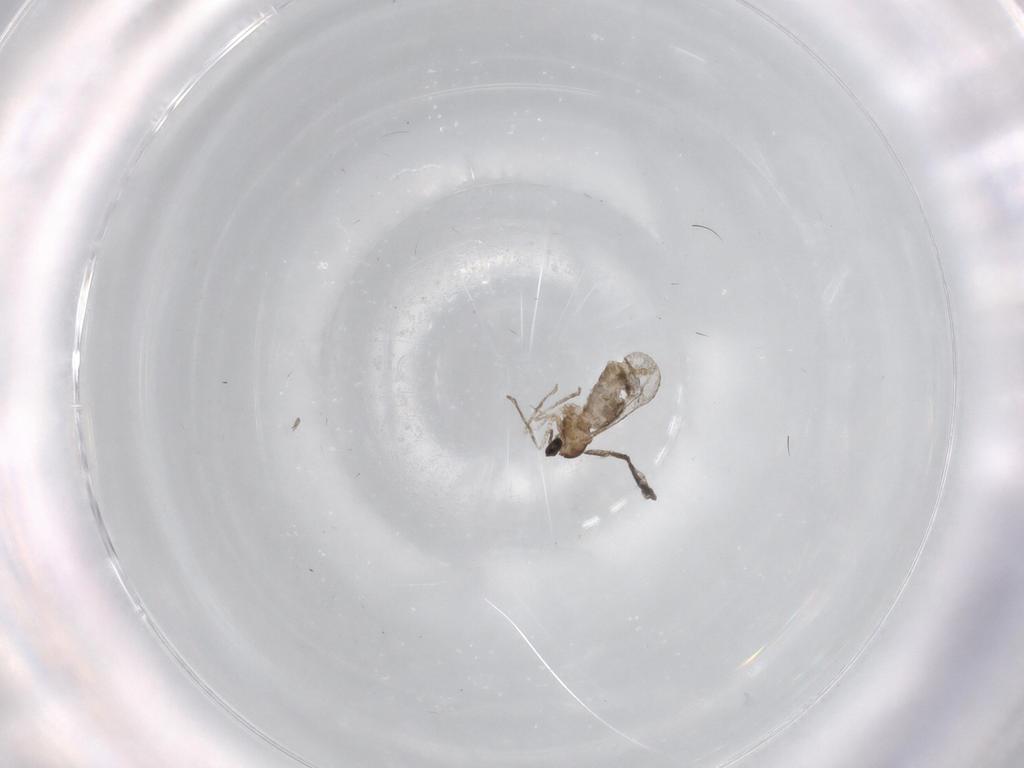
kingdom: Animalia
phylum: Arthropoda
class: Insecta
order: Diptera
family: Cecidomyiidae
